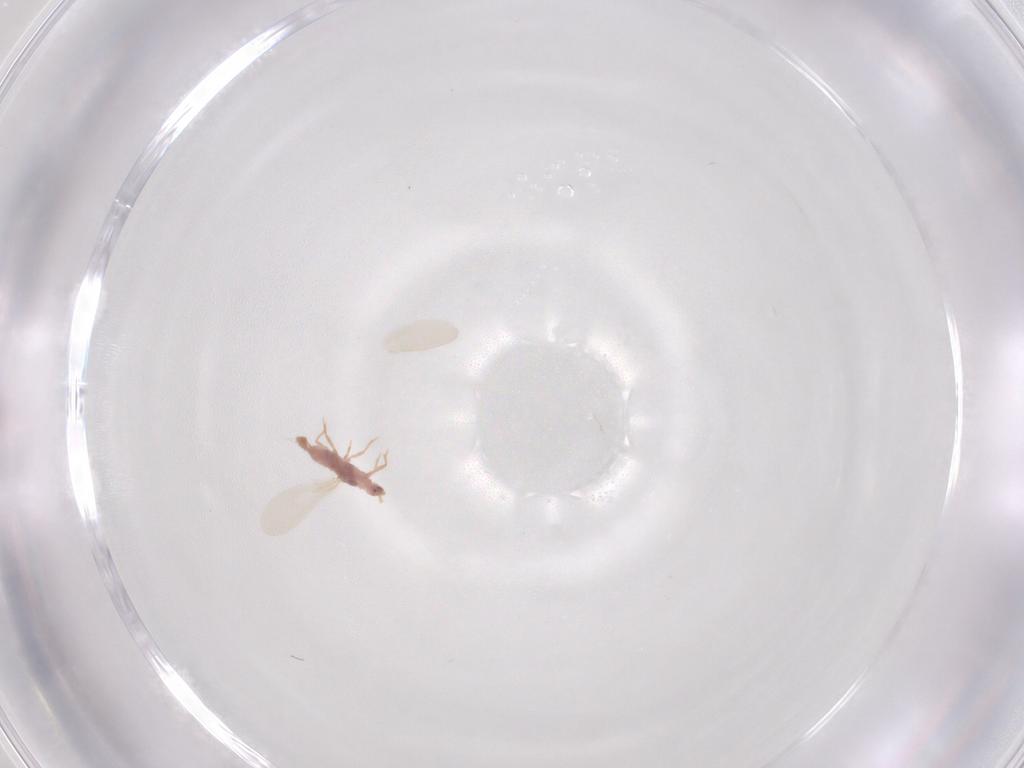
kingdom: Animalia
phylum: Arthropoda
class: Insecta
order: Hemiptera
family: Pseudococcidae
